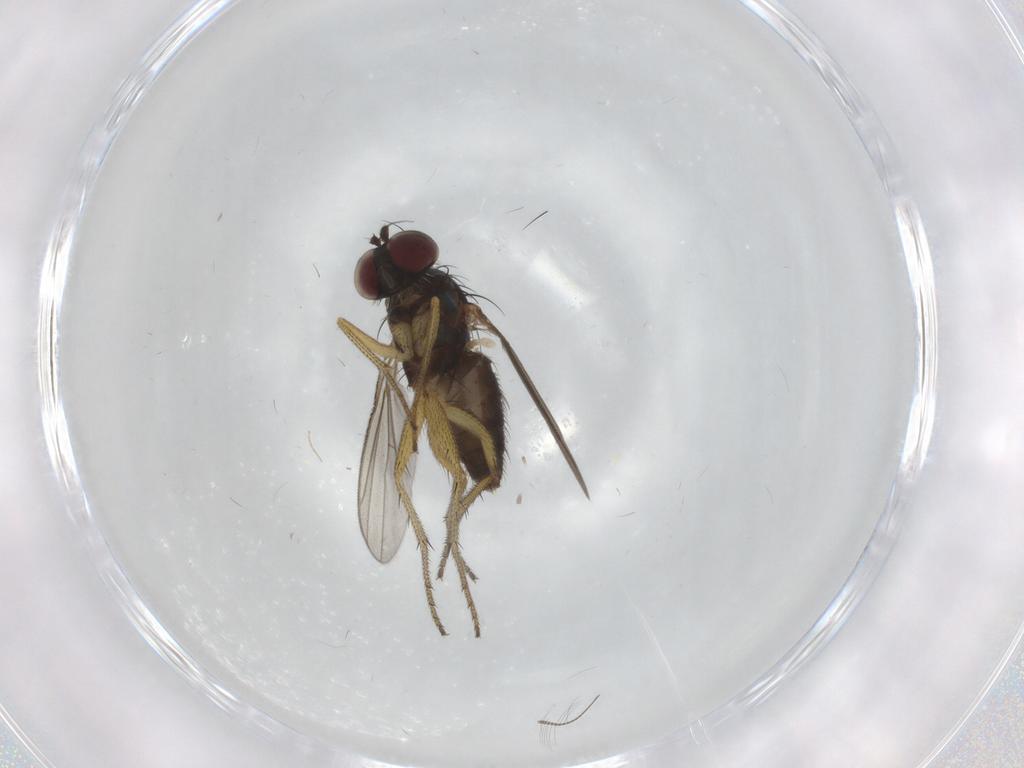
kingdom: Animalia
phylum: Arthropoda
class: Insecta
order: Diptera
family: Chironomidae
